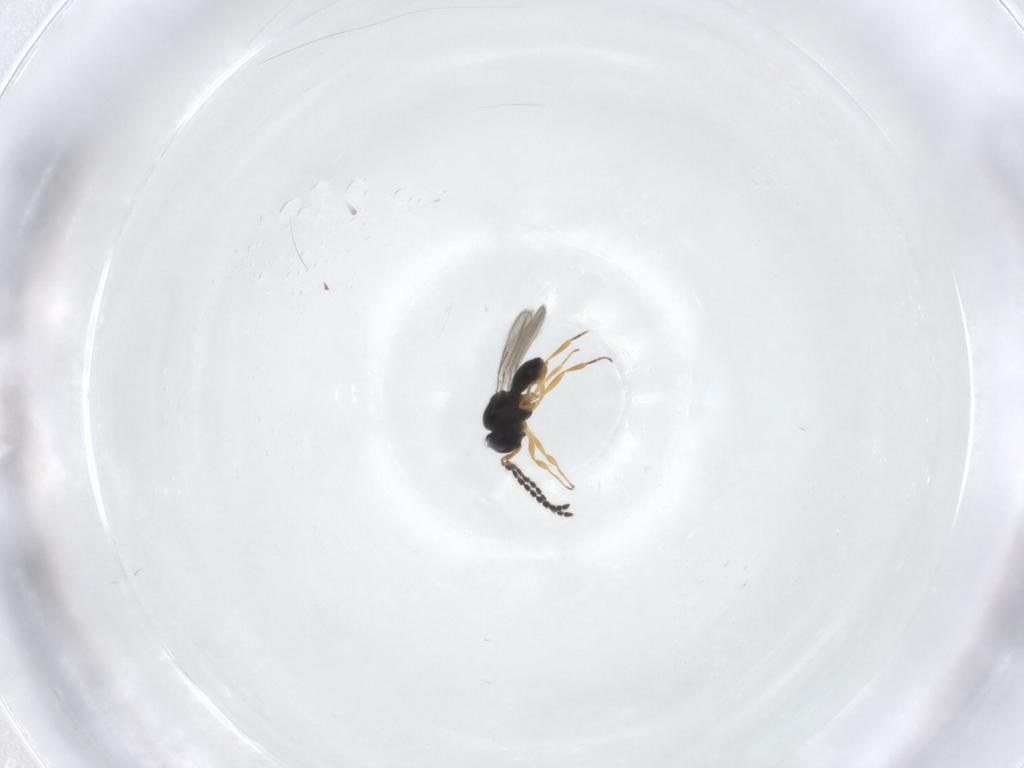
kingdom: Animalia
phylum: Arthropoda
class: Insecta
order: Hymenoptera
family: Scelionidae
